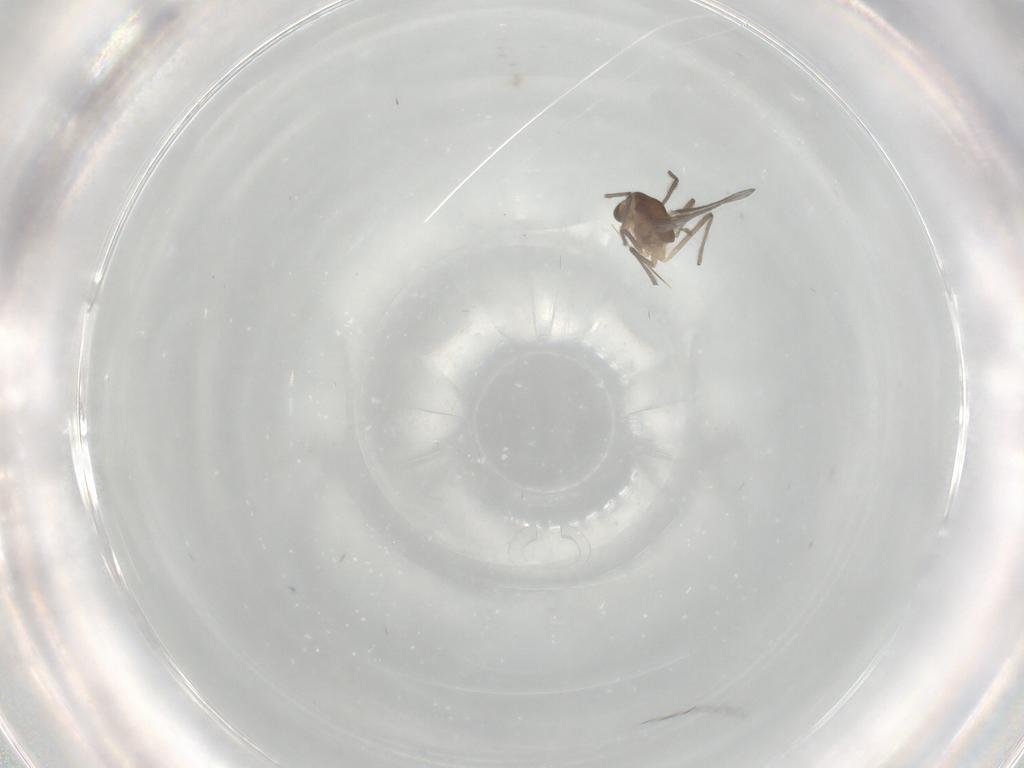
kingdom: Animalia
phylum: Arthropoda
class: Insecta
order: Diptera
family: Chironomidae
